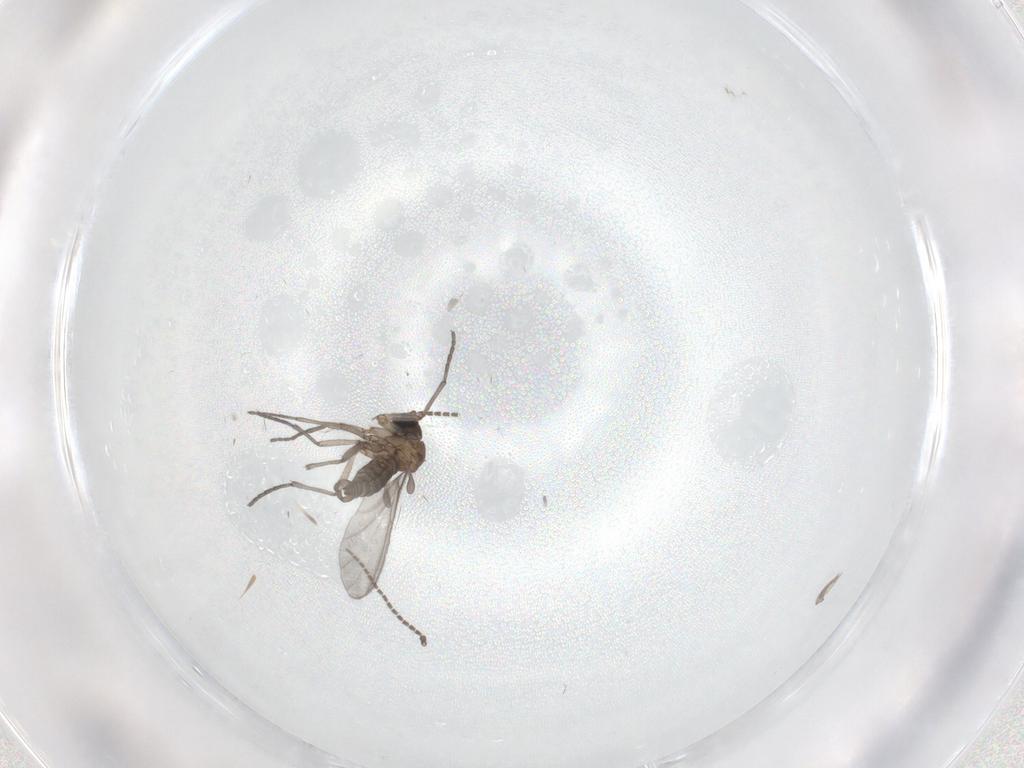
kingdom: Animalia
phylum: Arthropoda
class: Insecta
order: Diptera
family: Sciaridae
